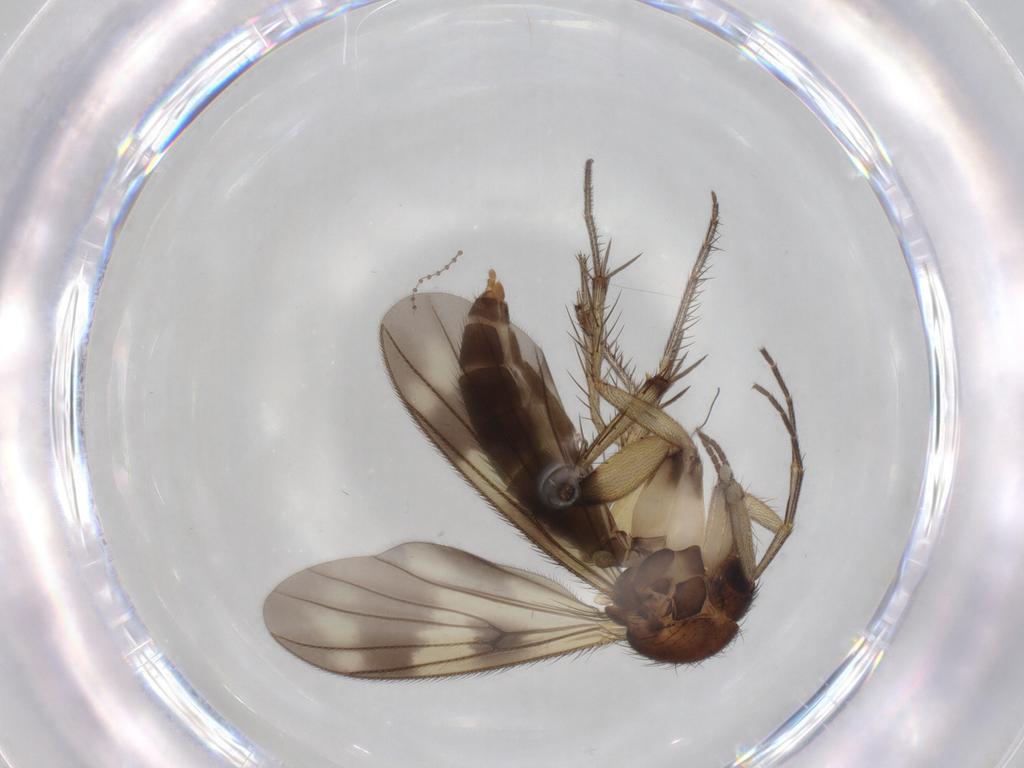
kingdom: Animalia
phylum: Arthropoda
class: Insecta
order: Diptera
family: Mycetophilidae
